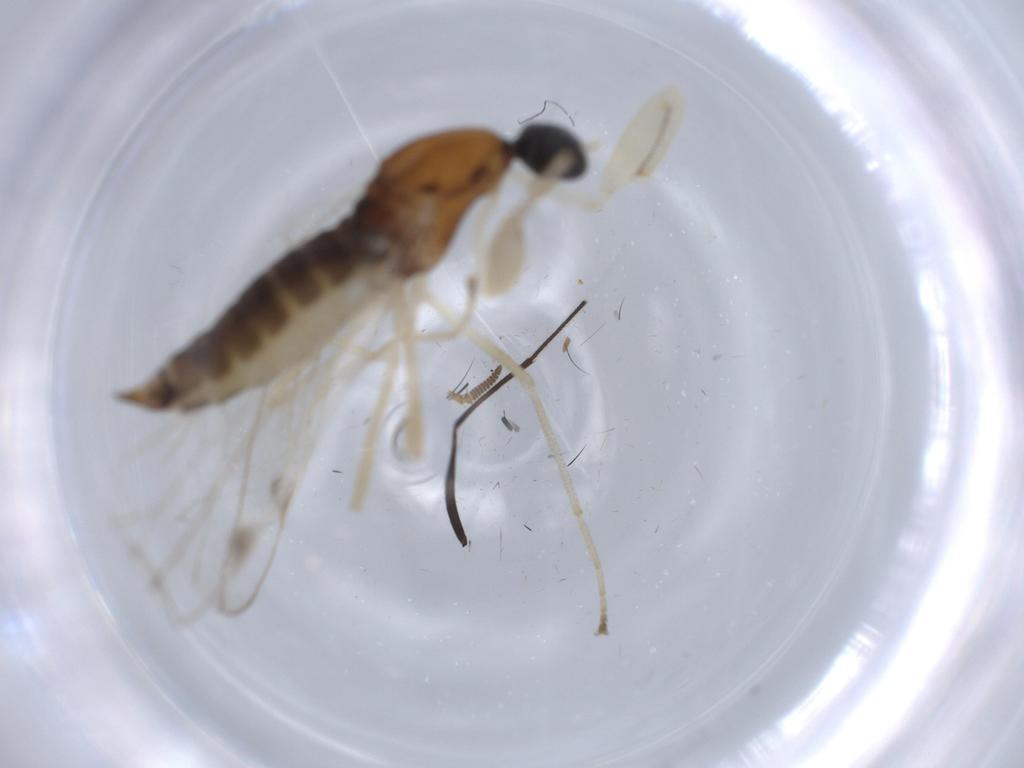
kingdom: Animalia
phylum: Arthropoda
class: Insecta
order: Diptera
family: Empididae
